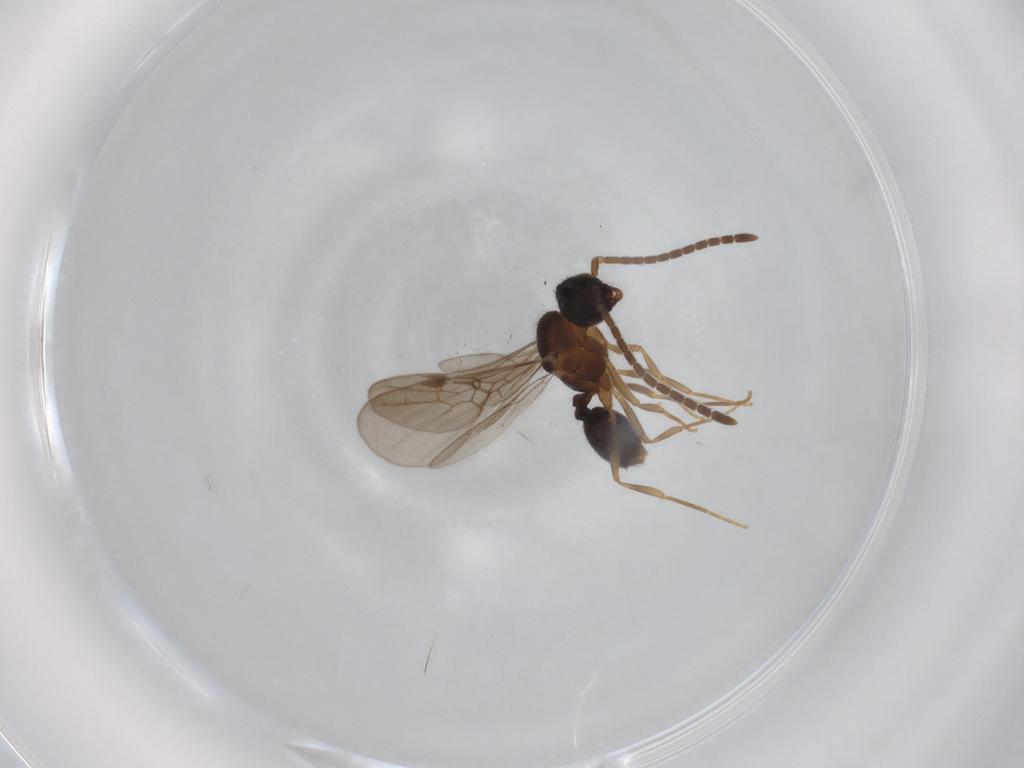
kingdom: Animalia
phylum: Arthropoda
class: Insecta
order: Hymenoptera
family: Formicidae
